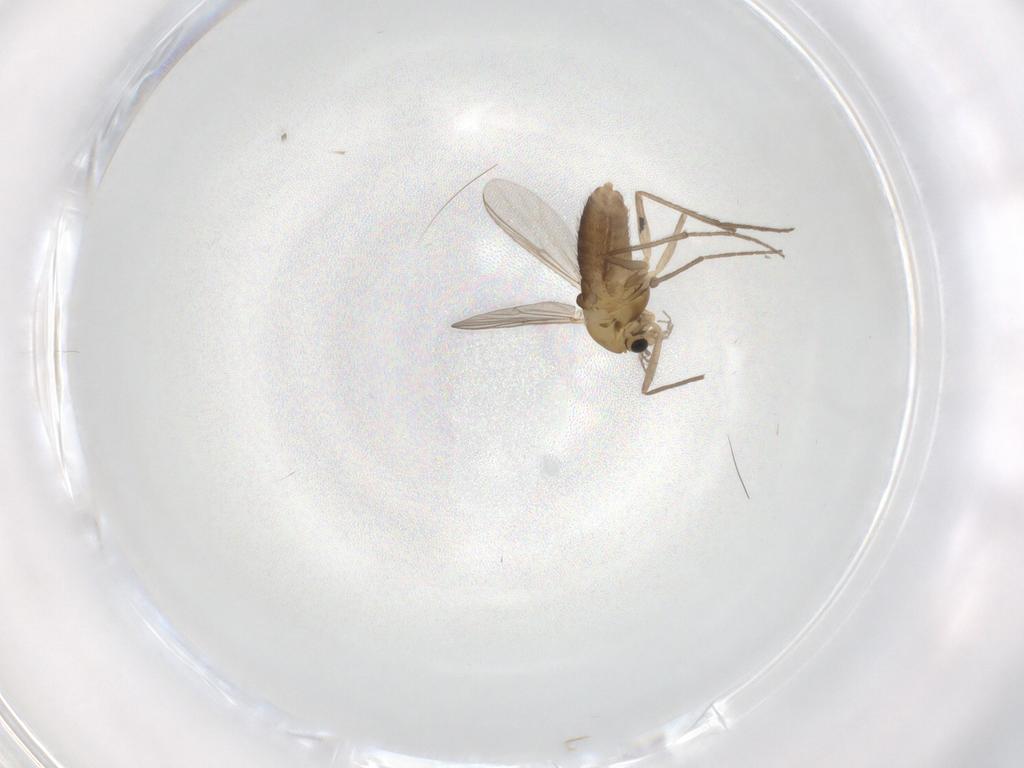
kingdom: Animalia
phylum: Arthropoda
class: Insecta
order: Diptera
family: Chironomidae
